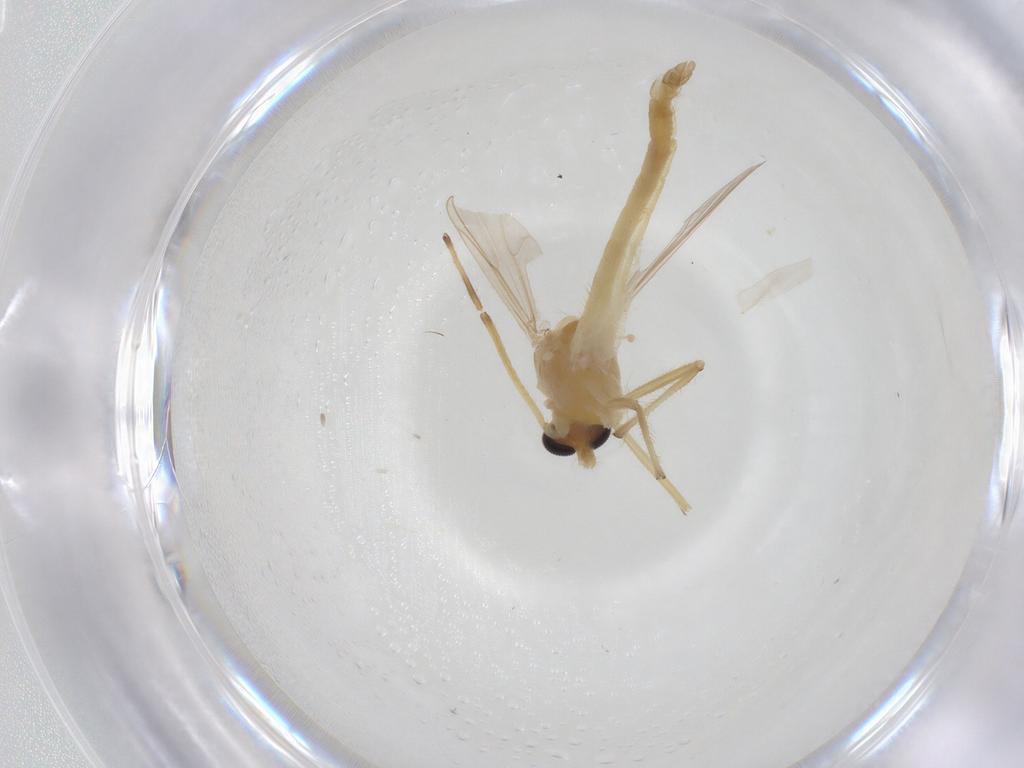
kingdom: Animalia
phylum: Arthropoda
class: Insecta
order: Diptera
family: Chironomidae
